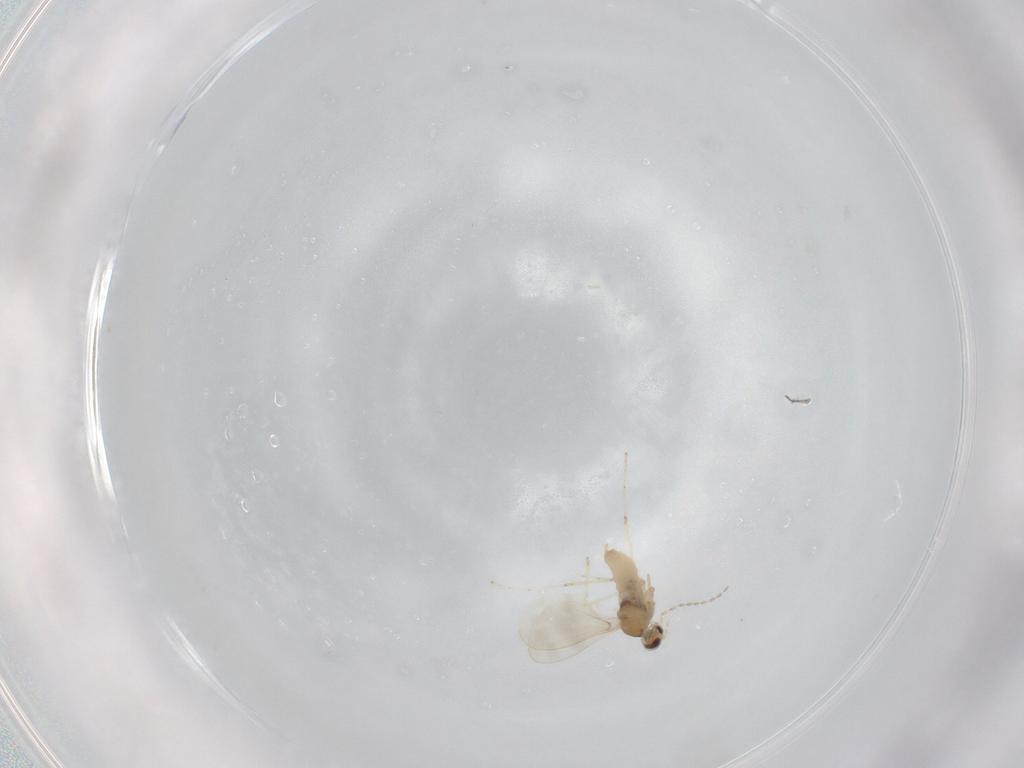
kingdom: Animalia
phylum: Arthropoda
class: Insecta
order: Diptera
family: Cecidomyiidae
